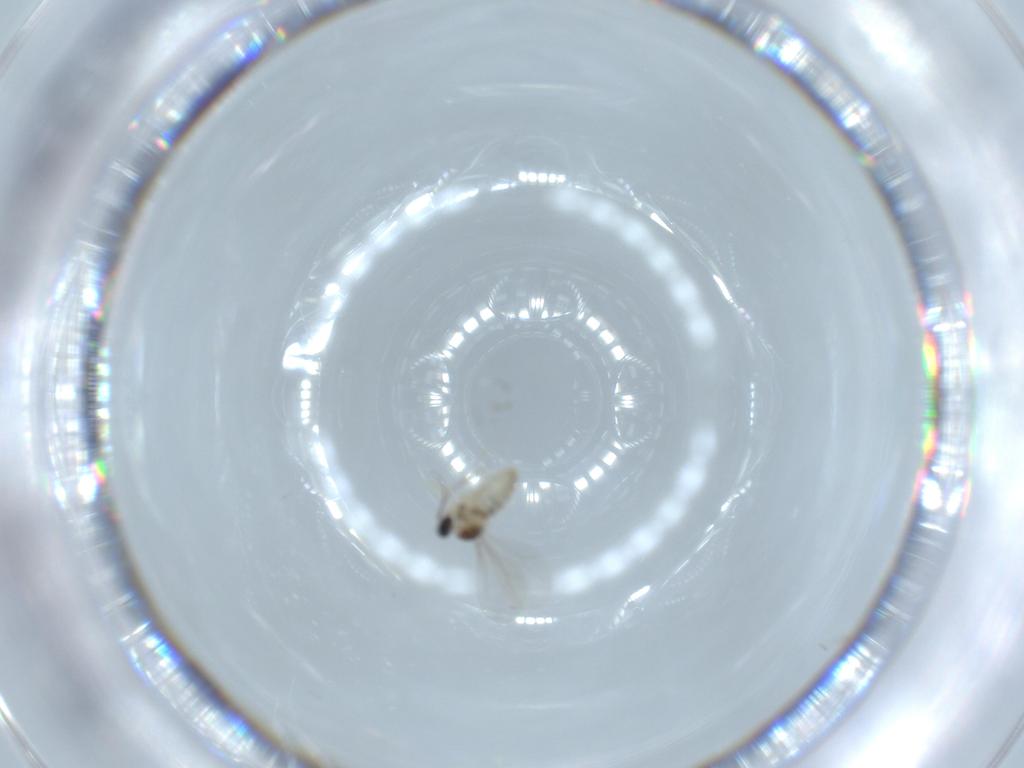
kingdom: Animalia
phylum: Arthropoda
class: Insecta
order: Diptera
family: Cecidomyiidae
